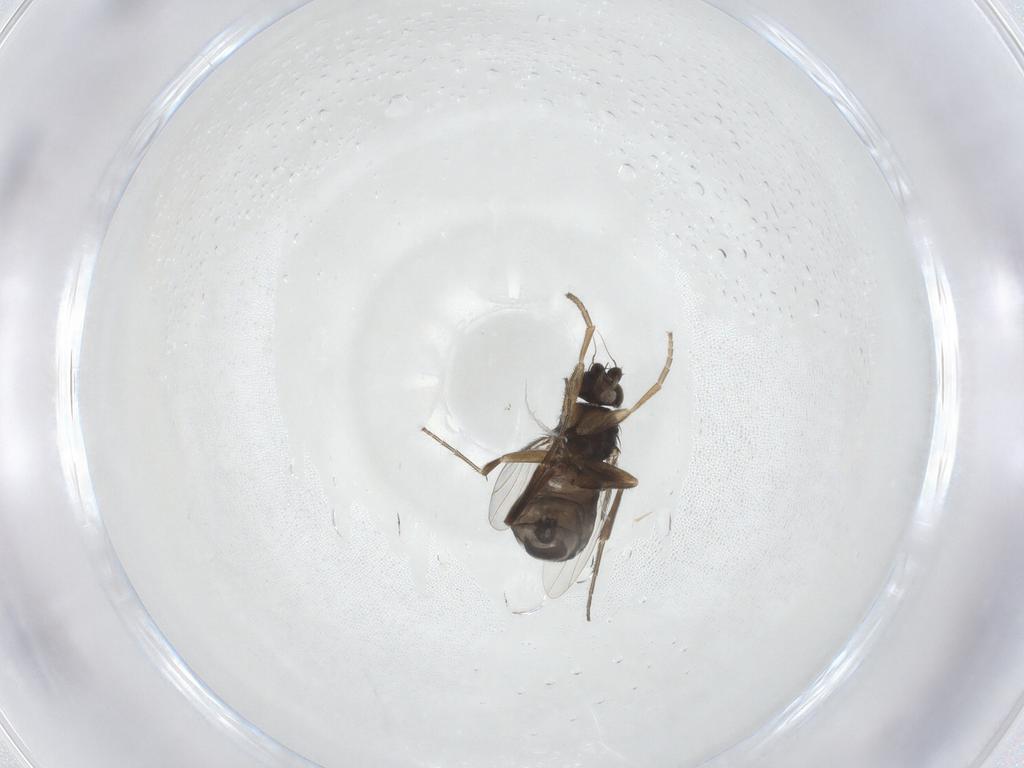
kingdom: Animalia
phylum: Arthropoda
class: Insecta
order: Diptera
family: Phoridae
